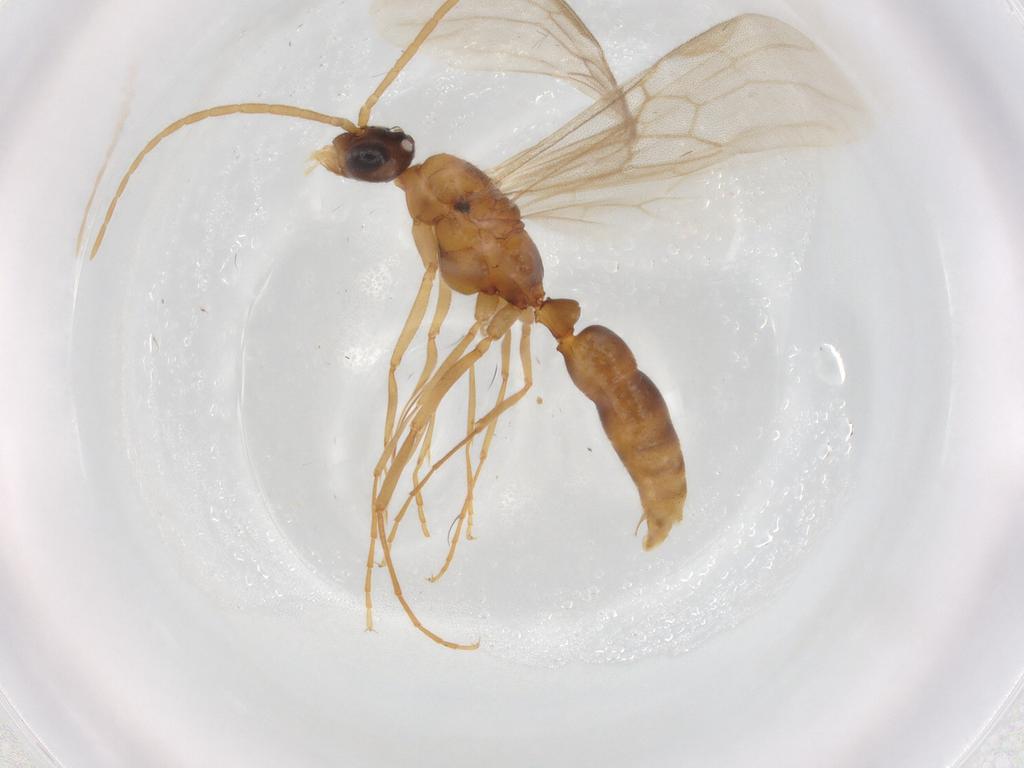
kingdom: Animalia
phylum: Arthropoda
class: Insecta
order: Hymenoptera
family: Formicidae
